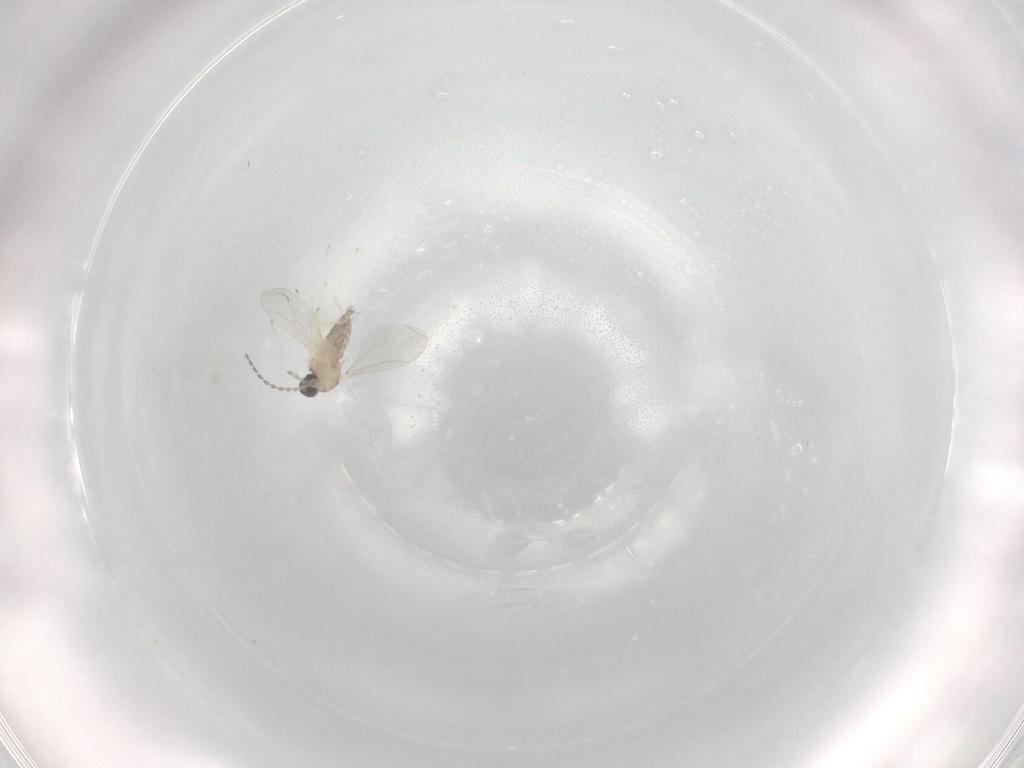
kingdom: Animalia
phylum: Arthropoda
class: Insecta
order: Diptera
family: Cecidomyiidae
